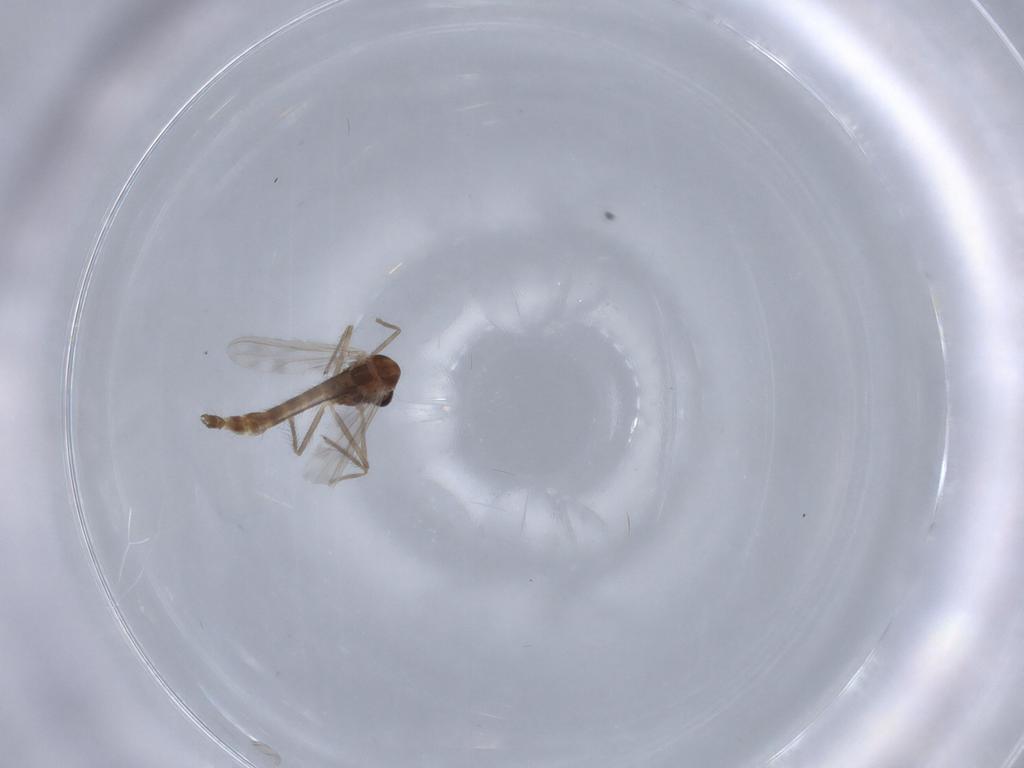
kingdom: Animalia
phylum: Arthropoda
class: Insecta
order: Diptera
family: Chironomidae
